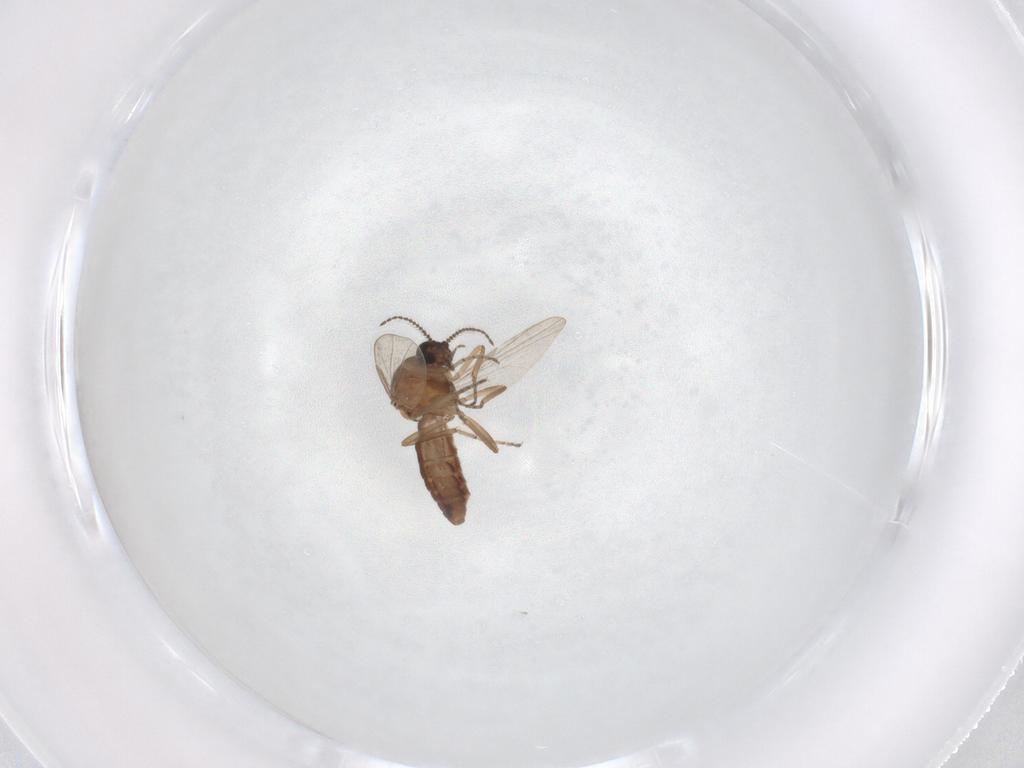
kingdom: Animalia
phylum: Arthropoda
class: Insecta
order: Diptera
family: Ceratopogonidae
